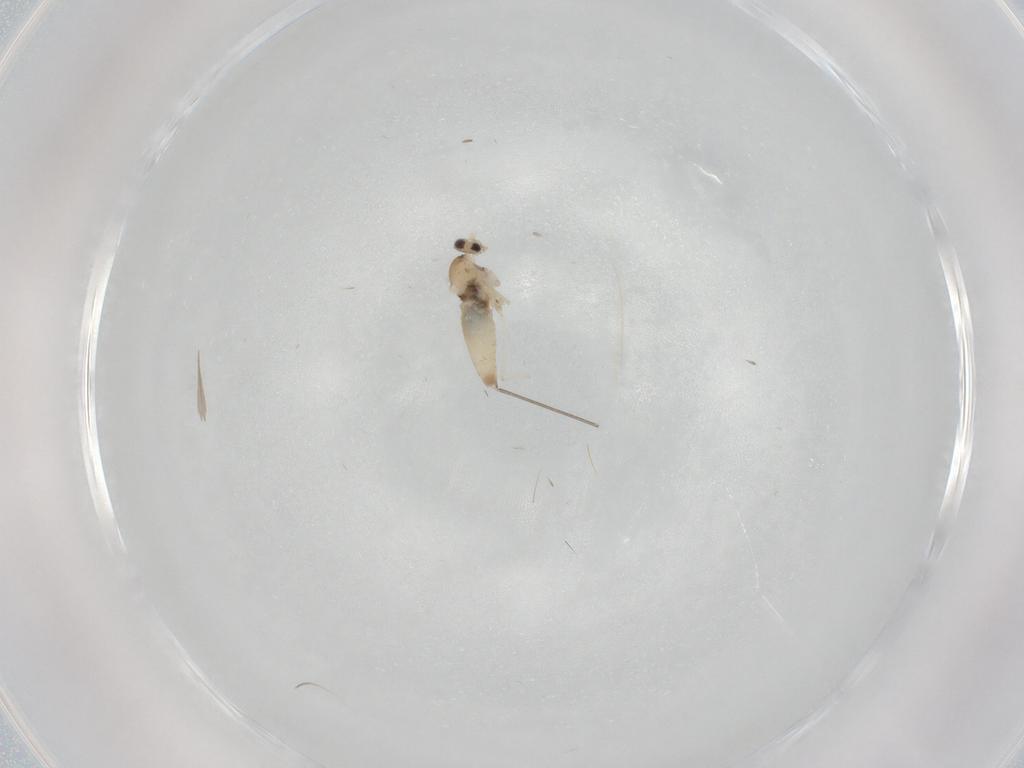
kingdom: Animalia
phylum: Arthropoda
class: Insecta
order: Diptera
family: Cecidomyiidae
